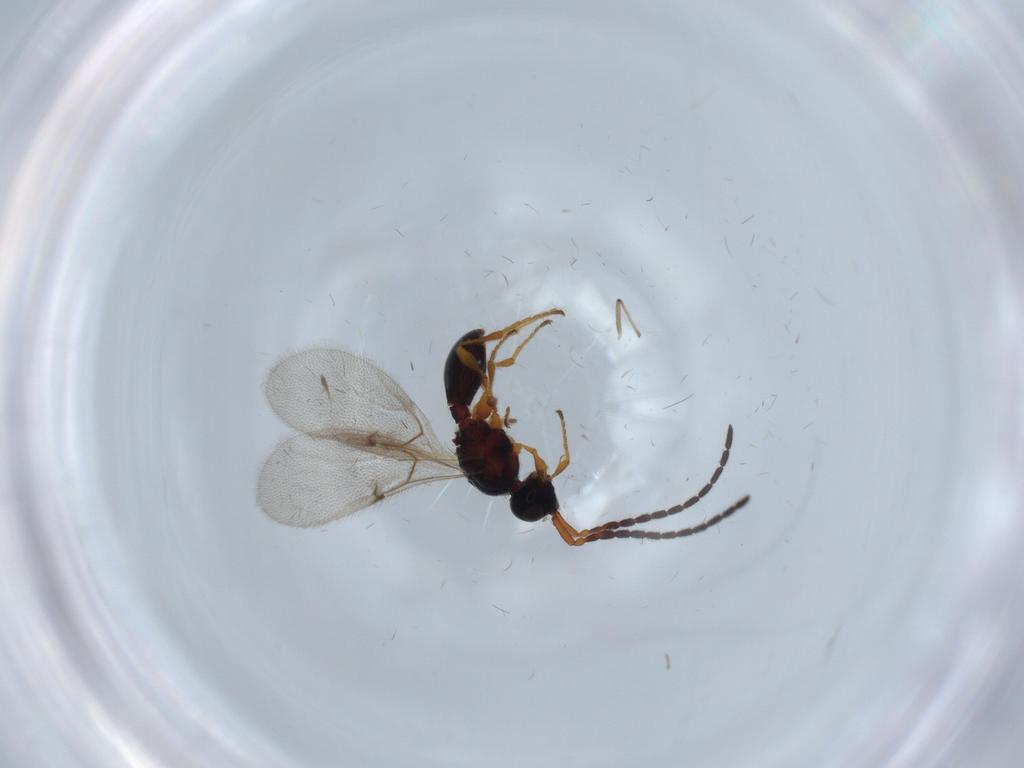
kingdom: Animalia
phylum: Arthropoda
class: Insecta
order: Hymenoptera
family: Diapriidae
